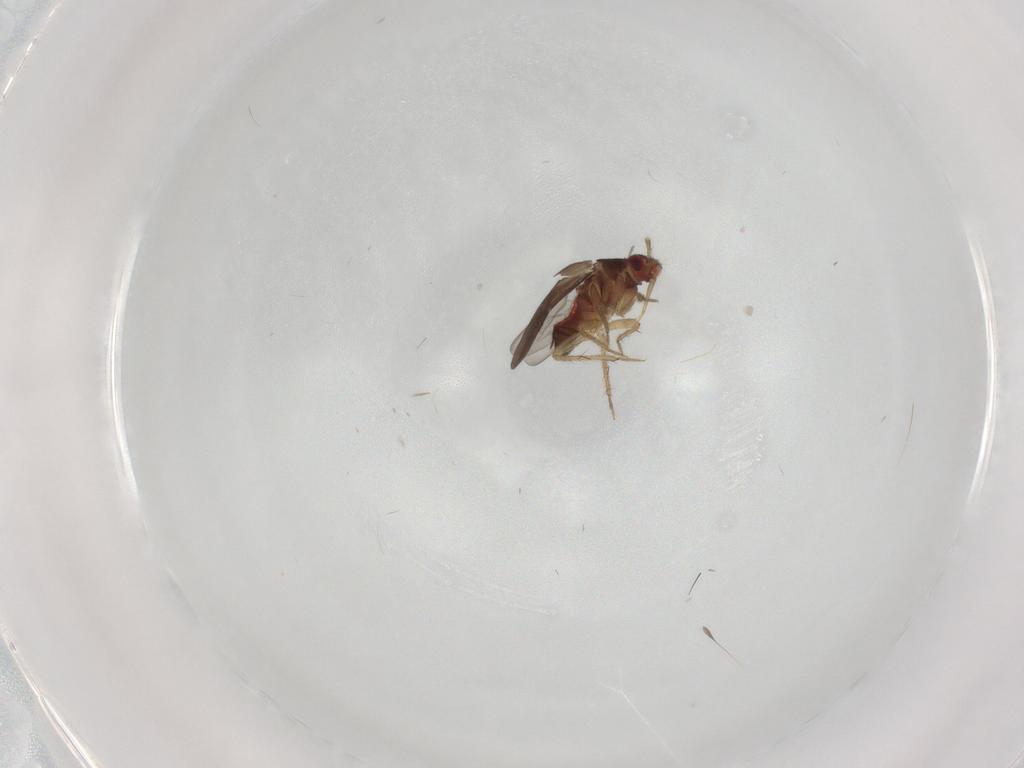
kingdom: Animalia
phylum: Arthropoda
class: Insecta
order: Hemiptera
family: Ceratocombidae
